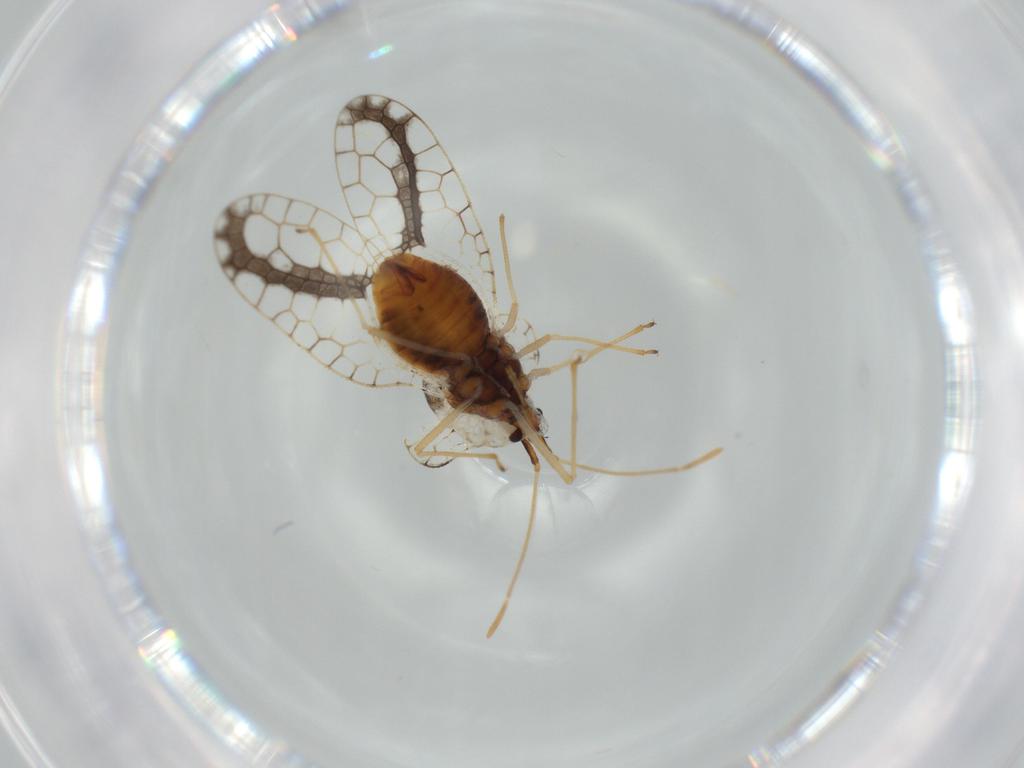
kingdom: Animalia
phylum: Arthropoda
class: Insecta
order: Hemiptera
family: Tingidae
